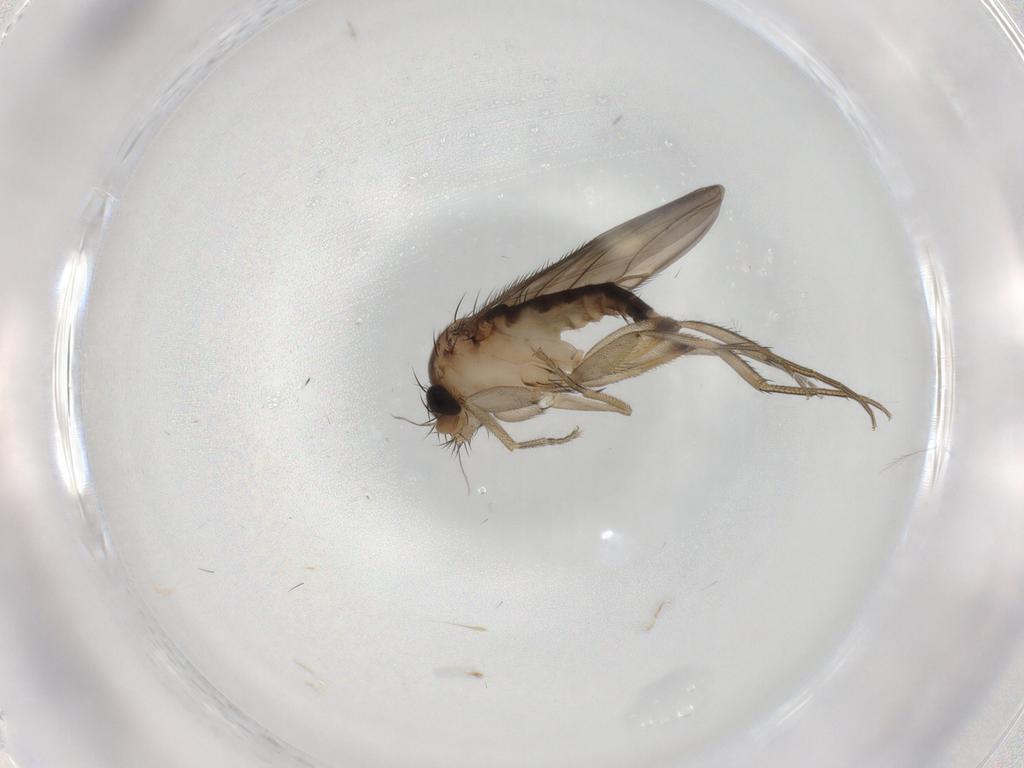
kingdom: Animalia
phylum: Arthropoda
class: Insecta
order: Diptera
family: Phoridae
